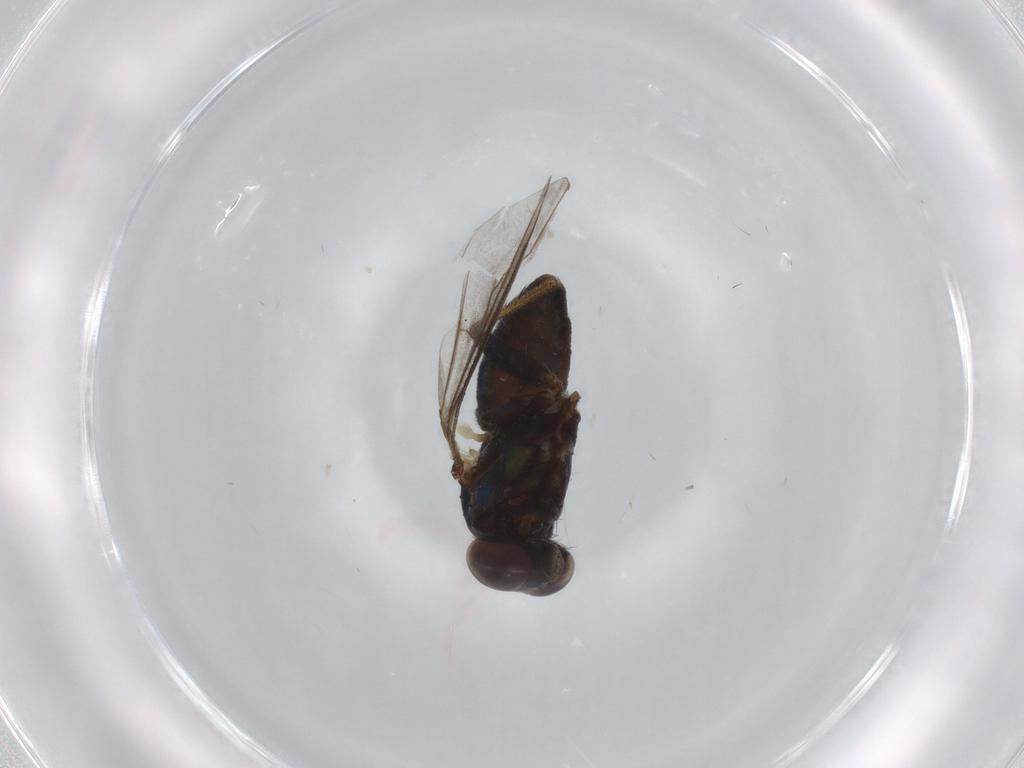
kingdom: Animalia
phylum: Arthropoda
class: Insecta
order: Diptera
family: Dolichopodidae
